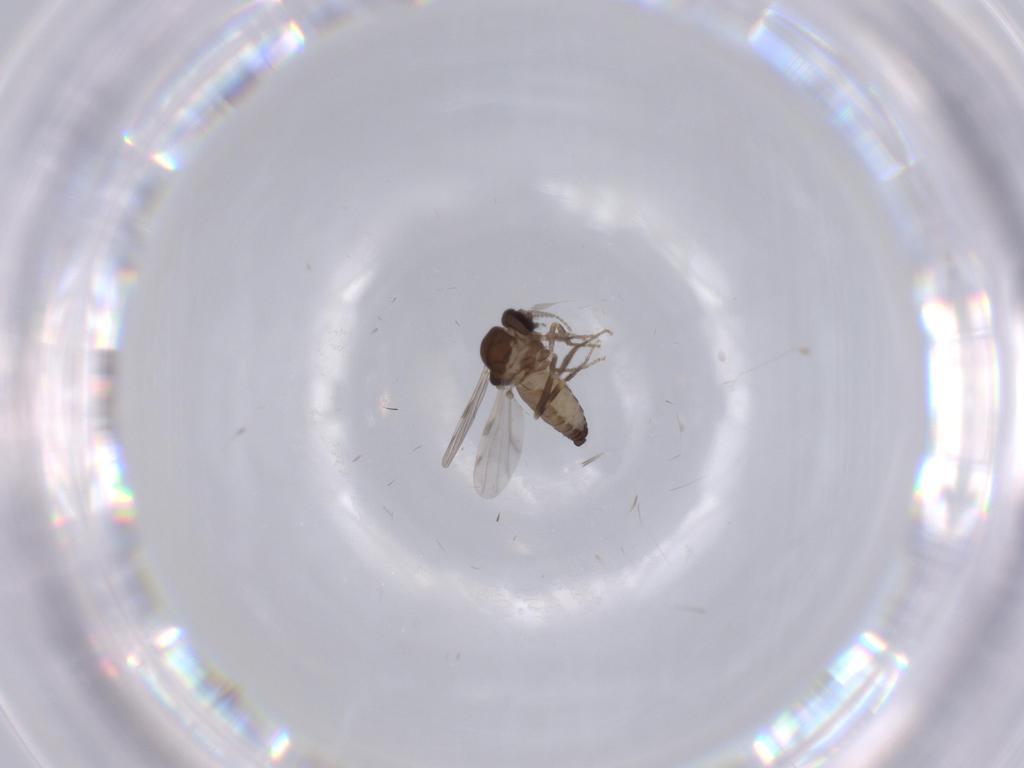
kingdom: Animalia
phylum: Arthropoda
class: Insecta
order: Diptera
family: Ceratopogonidae
